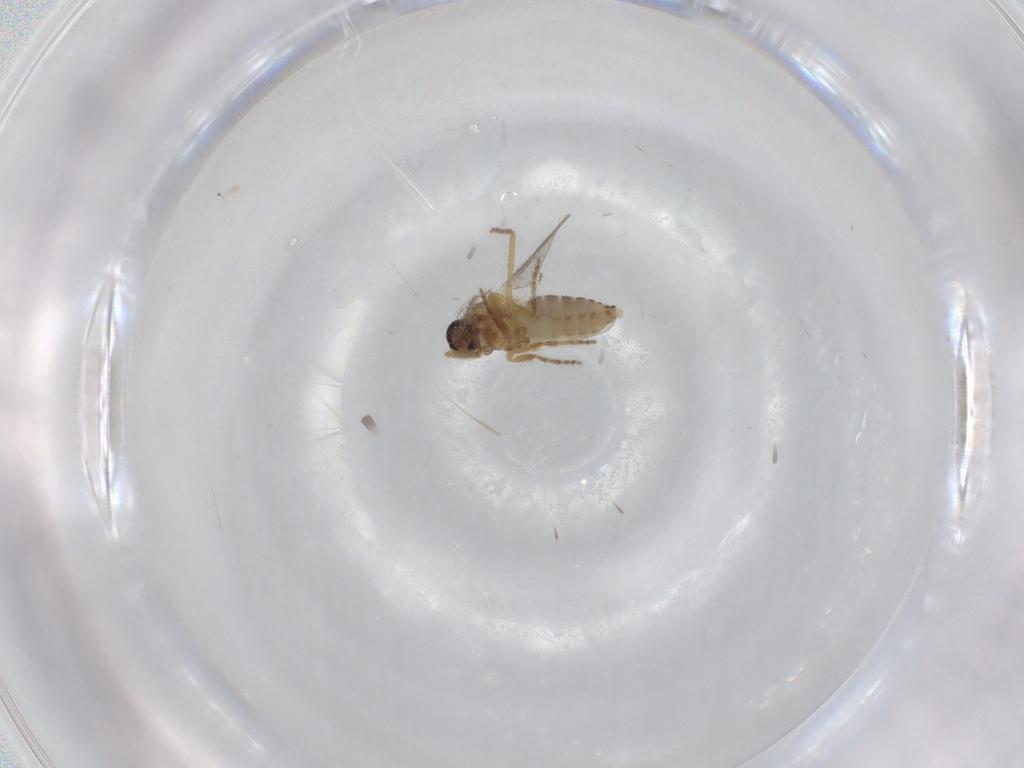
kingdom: Animalia
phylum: Arthropoda
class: Insecta
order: Diptera
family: Ceratopogonidae
